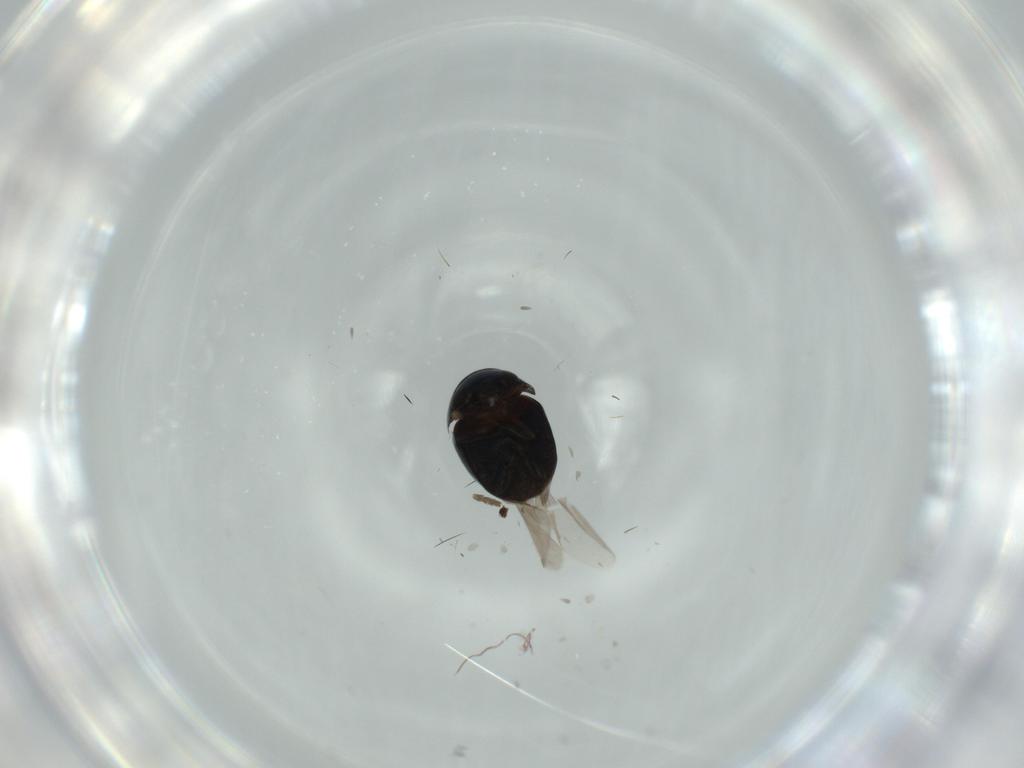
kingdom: Animalia
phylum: Arthropoda
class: Insecta
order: Coleoptera
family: Cybocephalidae
